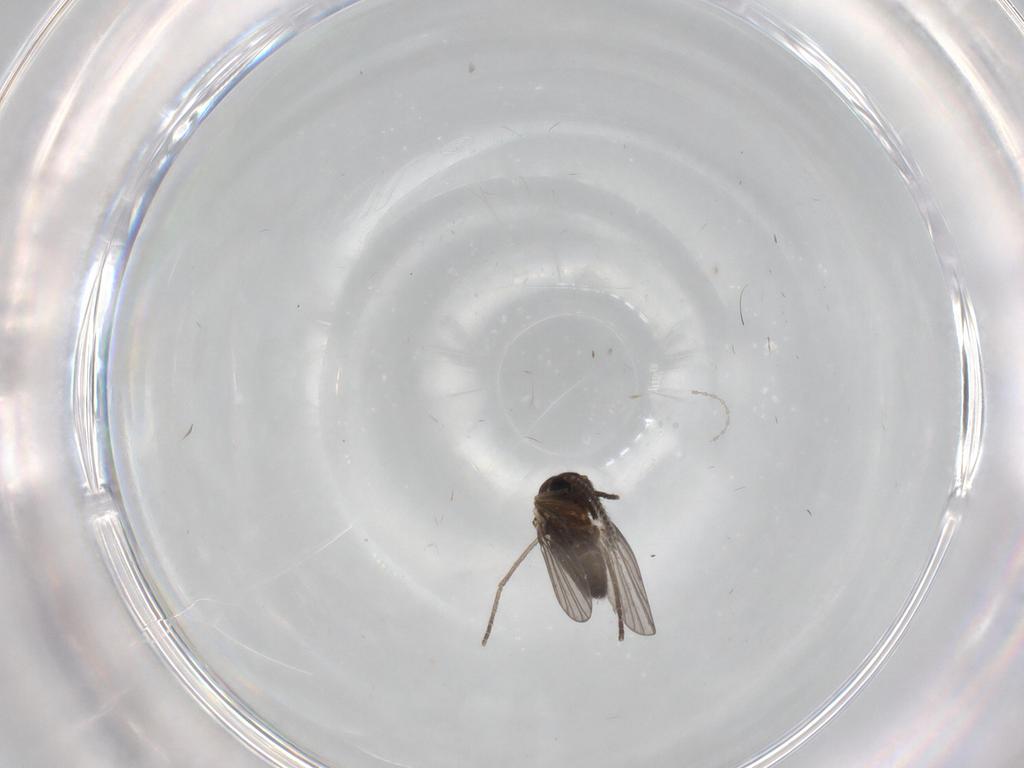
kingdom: Animalia
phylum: Arthropoda
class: Insecta
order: Diptera
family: Cecidomyiidae
